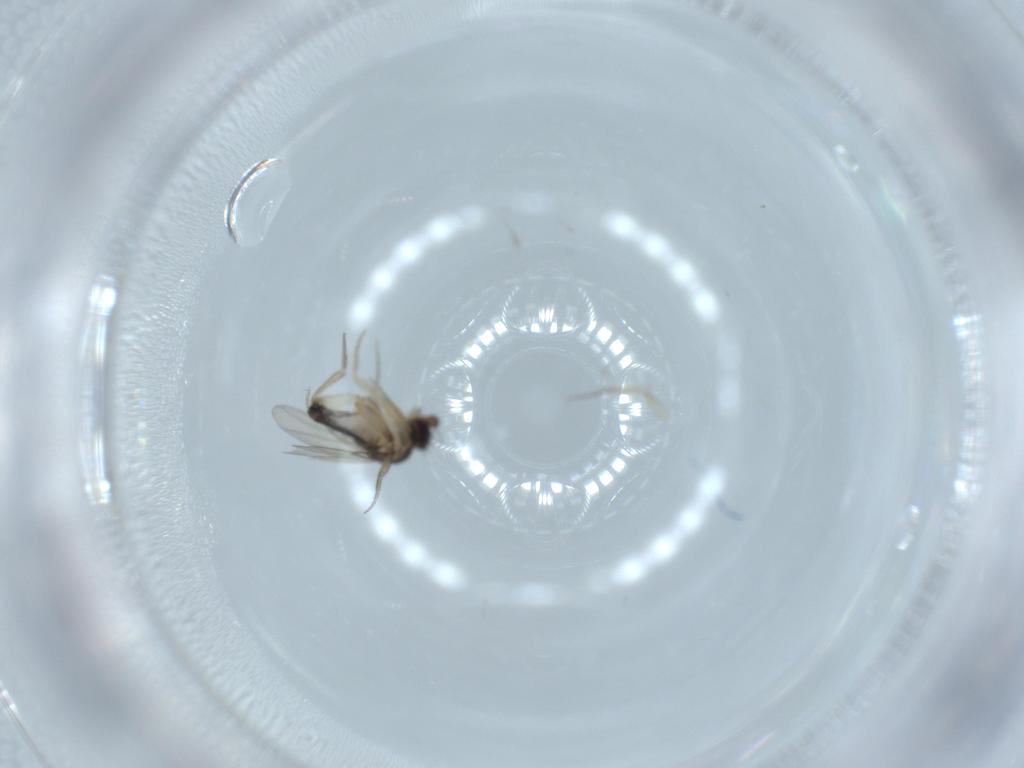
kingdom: Animalia
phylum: Arthropoda
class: Insecta
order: Diptera
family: Phoridae
